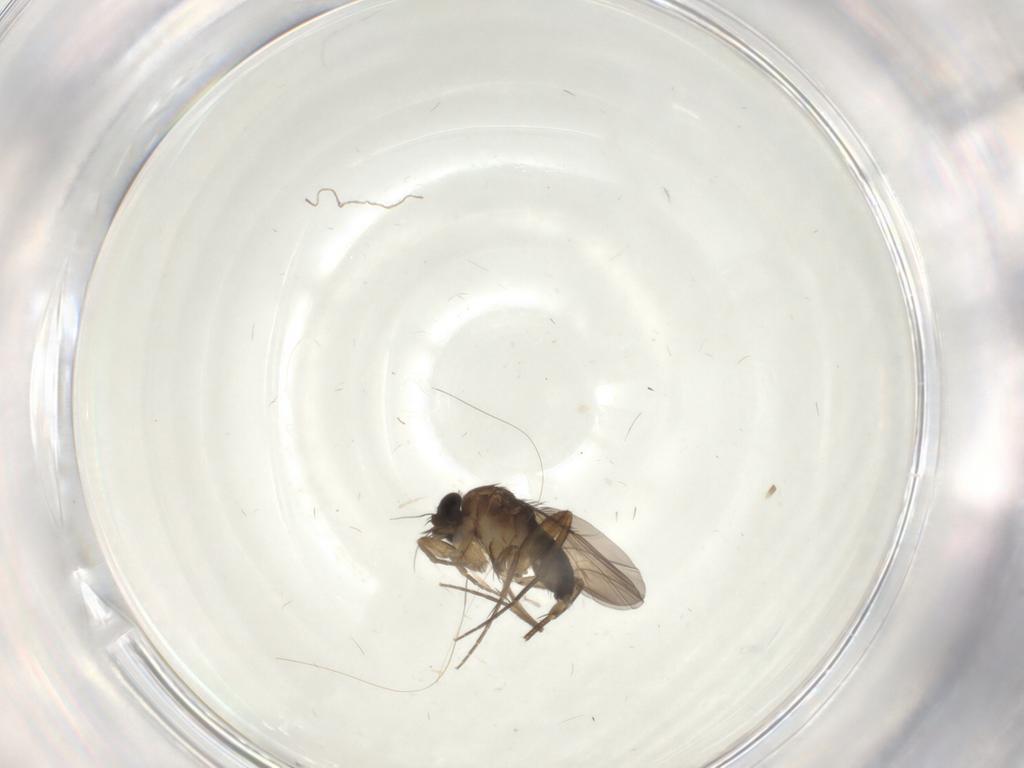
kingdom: Animalia
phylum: Arthropoda
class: Insecta
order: Diptera
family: Phoridae
